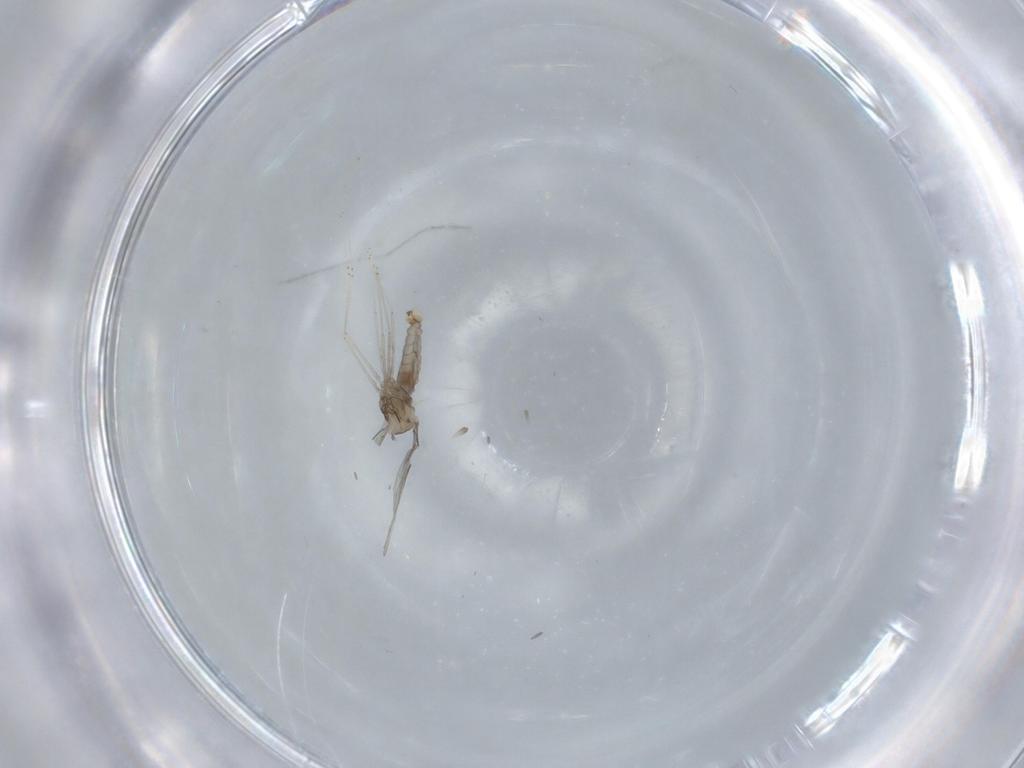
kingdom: Animalia
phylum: Arthropoda
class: Insecta
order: Diptera
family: Cecidomyiidae
